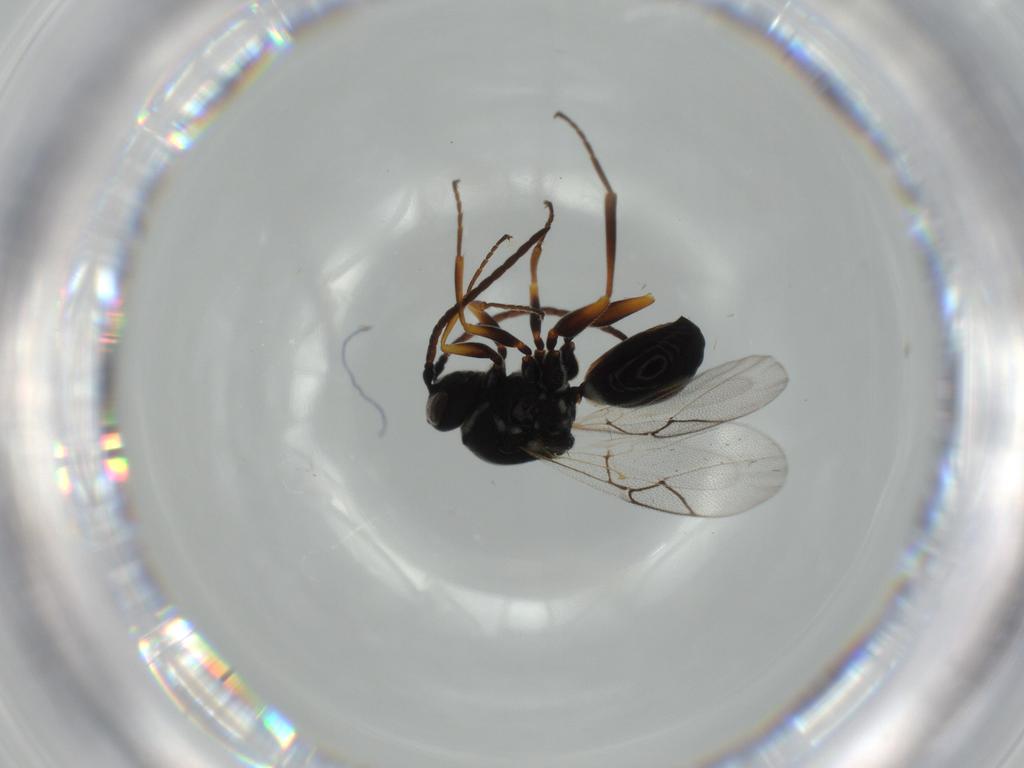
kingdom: Animalia
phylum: Arthropoda
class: Insecta
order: Hymenoptera
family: Figitidae
